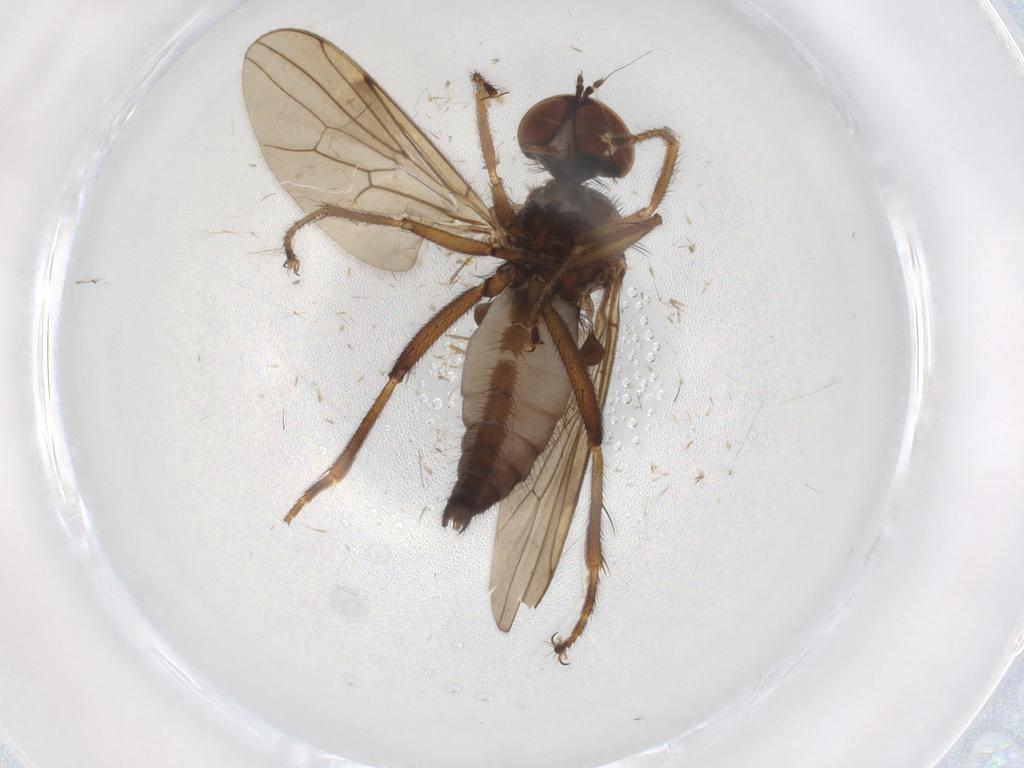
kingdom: Animalia
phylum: Arthropoda
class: Insecta
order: Diptera
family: Hybotidae
